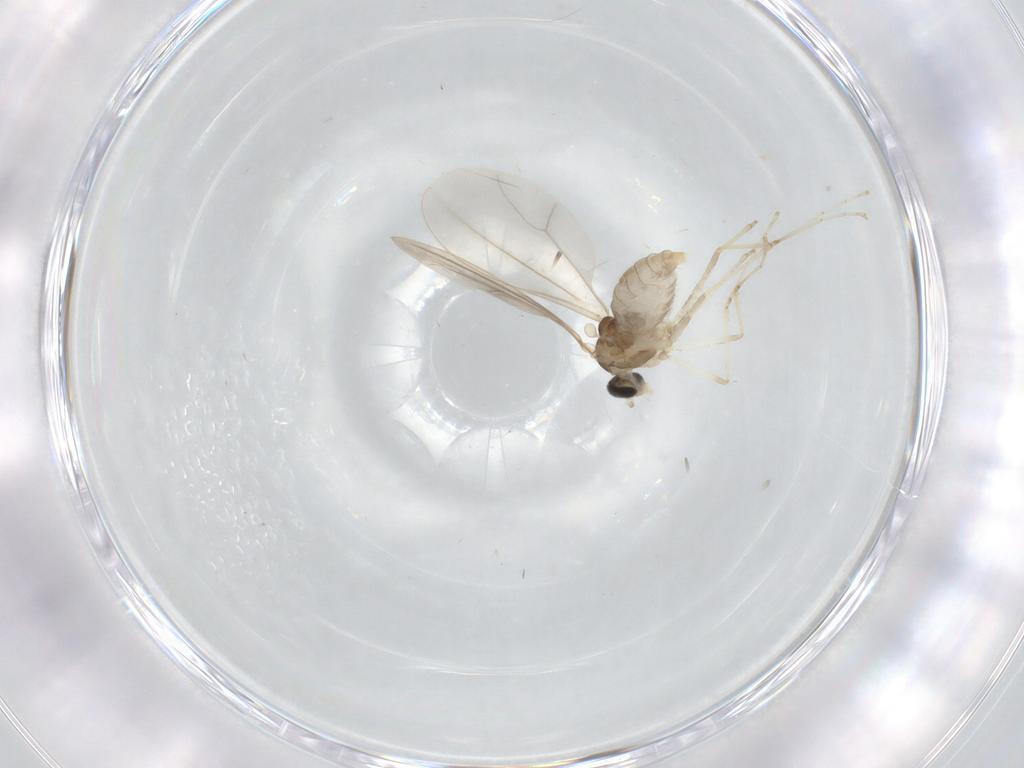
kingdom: Animalia
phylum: Arthropoda
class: Insecta
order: Diptera
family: Cecidomyiidae
